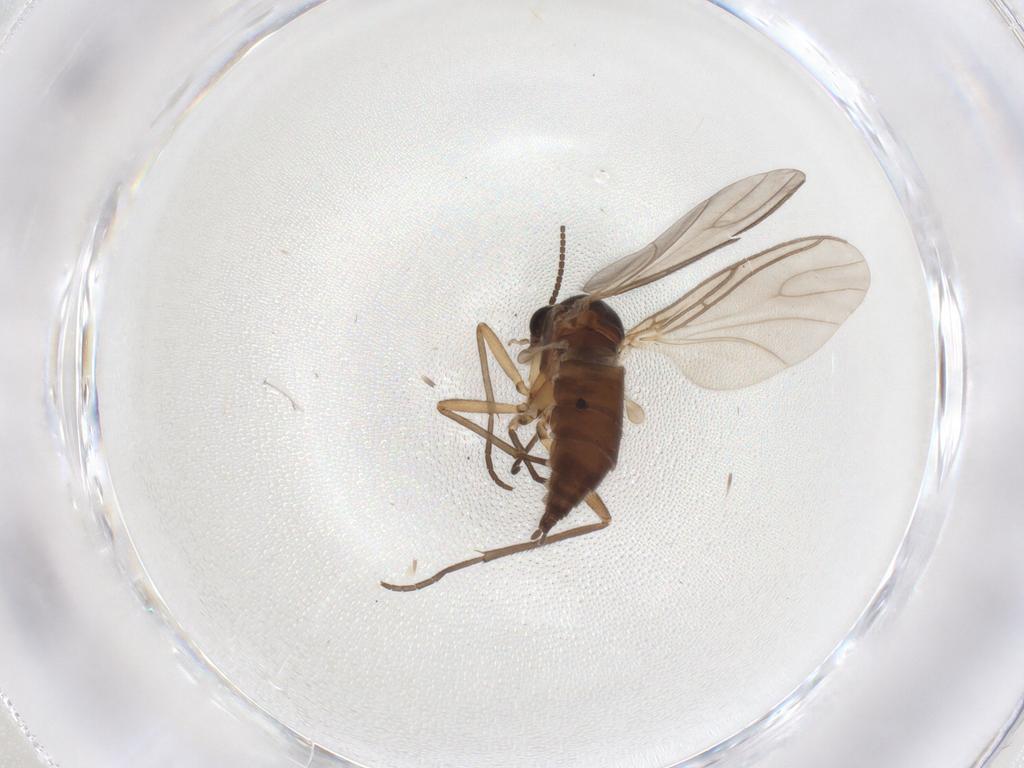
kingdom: Animalia
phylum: Arthropoda
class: Insecta
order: Diptera
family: Sciaridae
